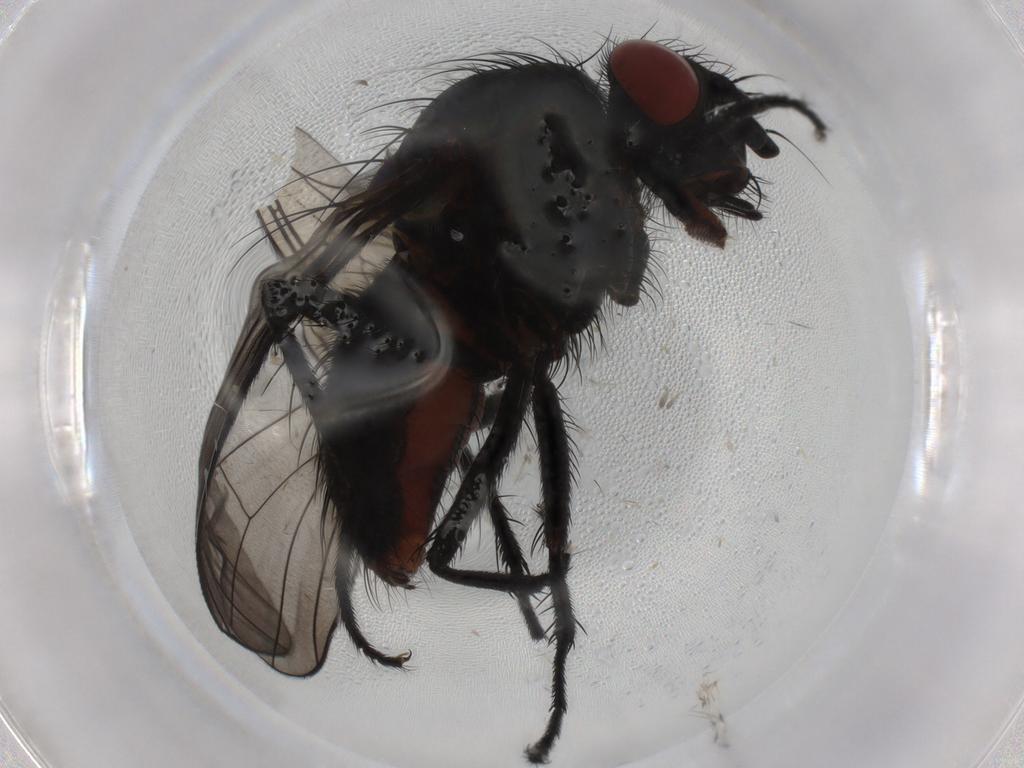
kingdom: Animalia
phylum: Arthropoda
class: Insecta
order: Diptera
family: Anthomyiidae
